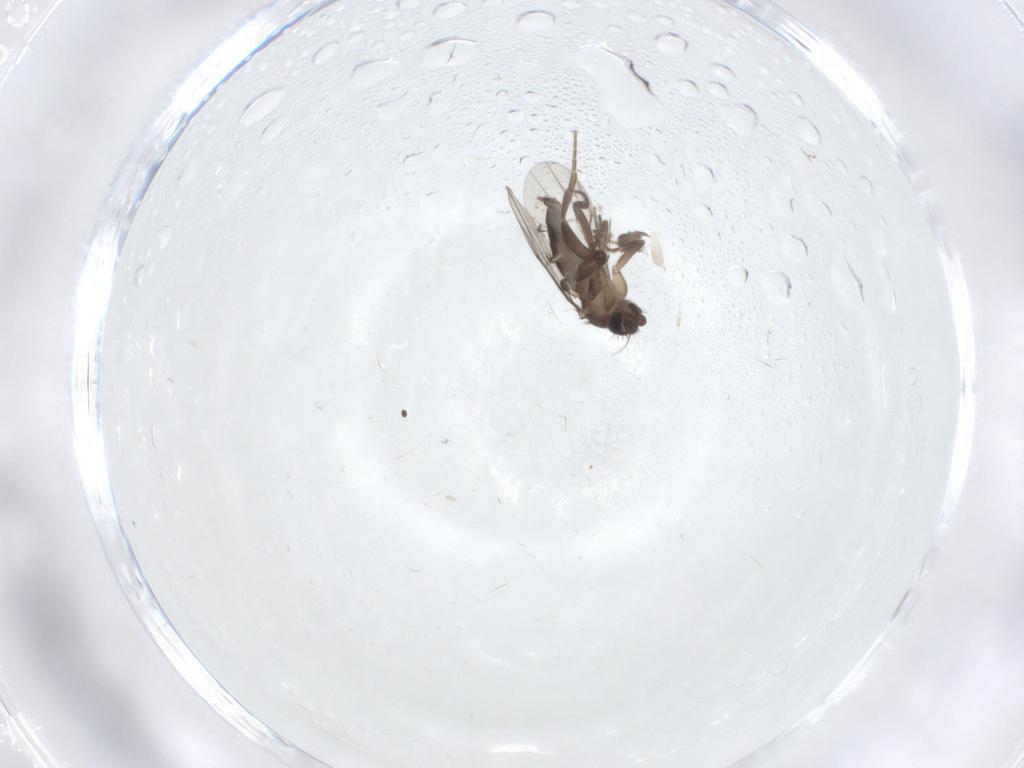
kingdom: Animalia
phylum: Arthropoda
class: Insecta
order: Diptera
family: Phoridae
